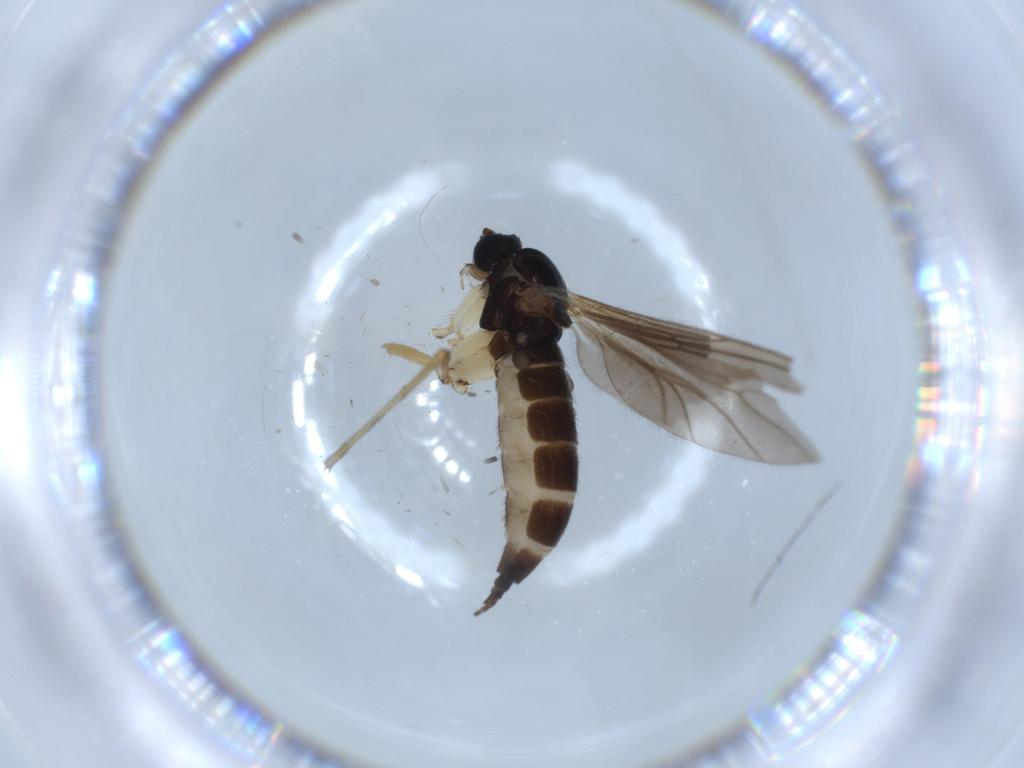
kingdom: Animalia
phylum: Arthropoda
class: Insecta
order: Diptera
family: Sciaridae
